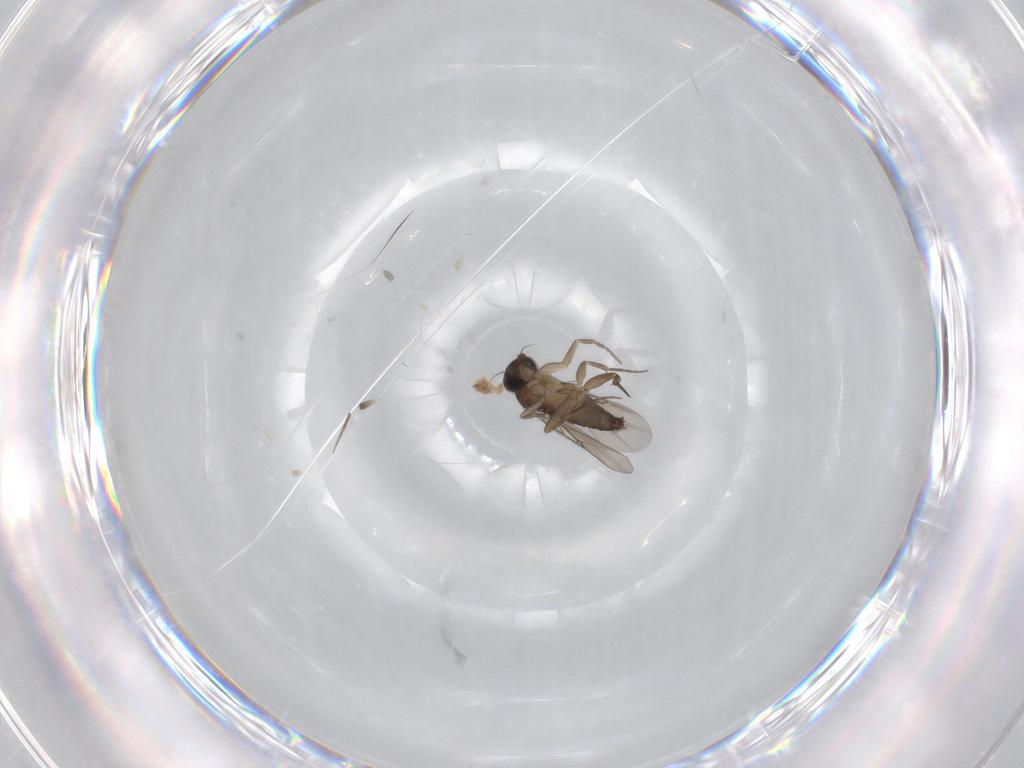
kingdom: Animalia
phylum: Arthropoda
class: Insecta
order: Diptera
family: Phoridae
